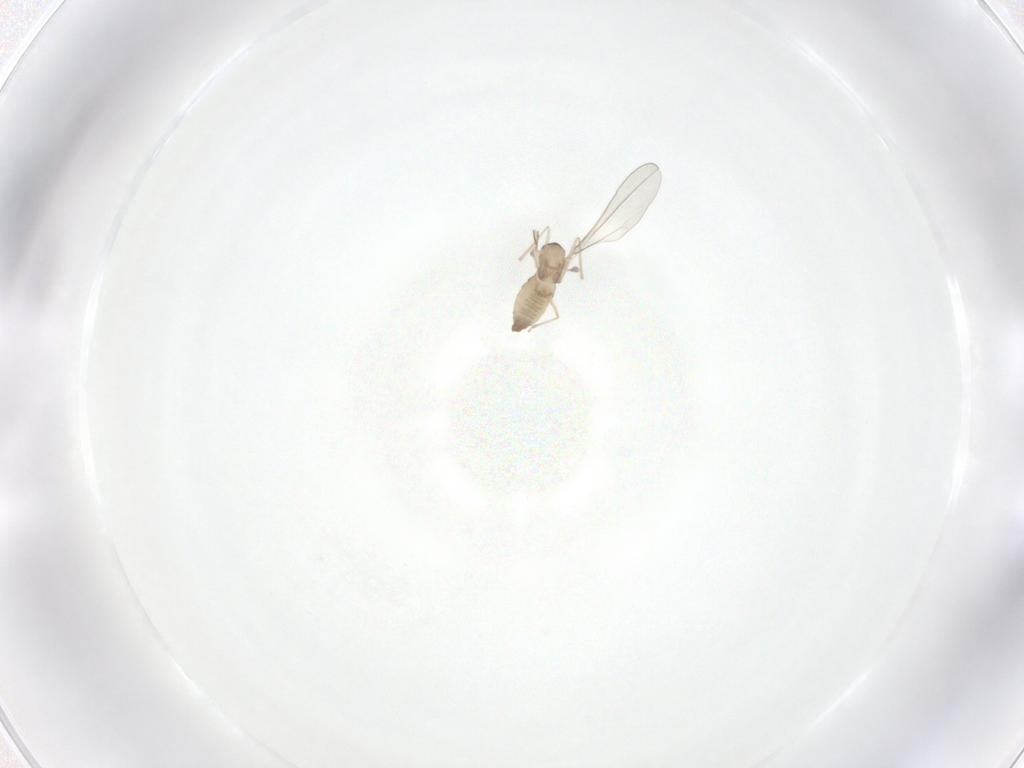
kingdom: Animalia
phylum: Arthropoda
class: Insecta
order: Diptera
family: Cecidomyiidae
